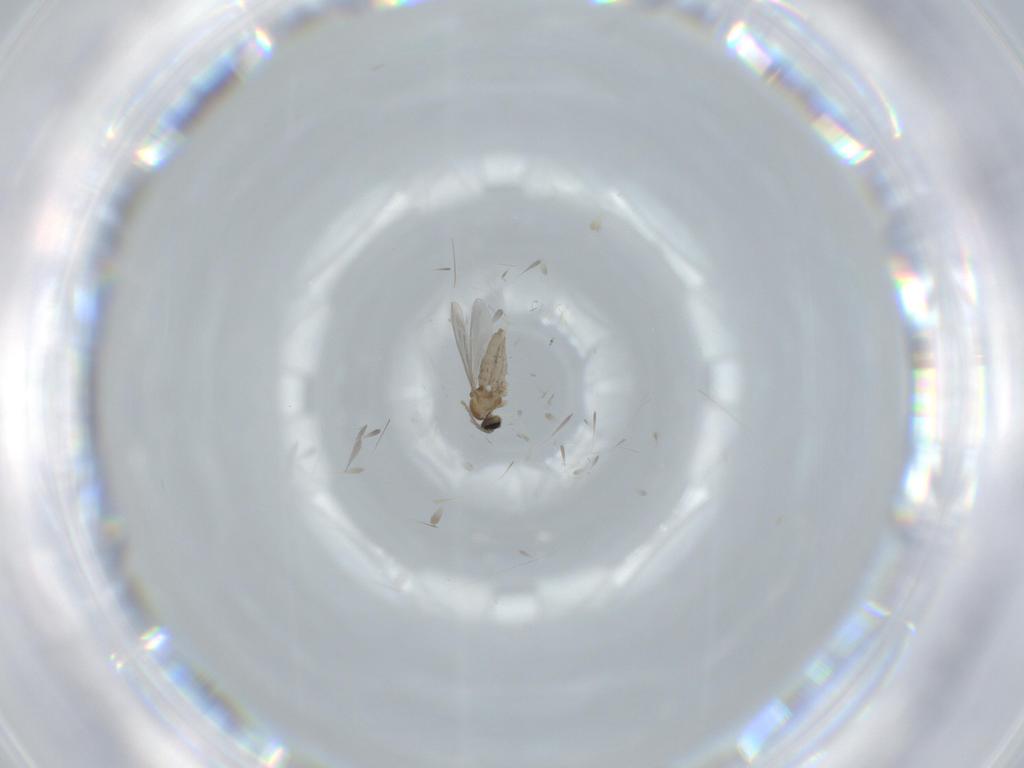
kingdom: Animalia
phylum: Arthropoda
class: Insecta
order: Diptera
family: Cecidomyiidae
